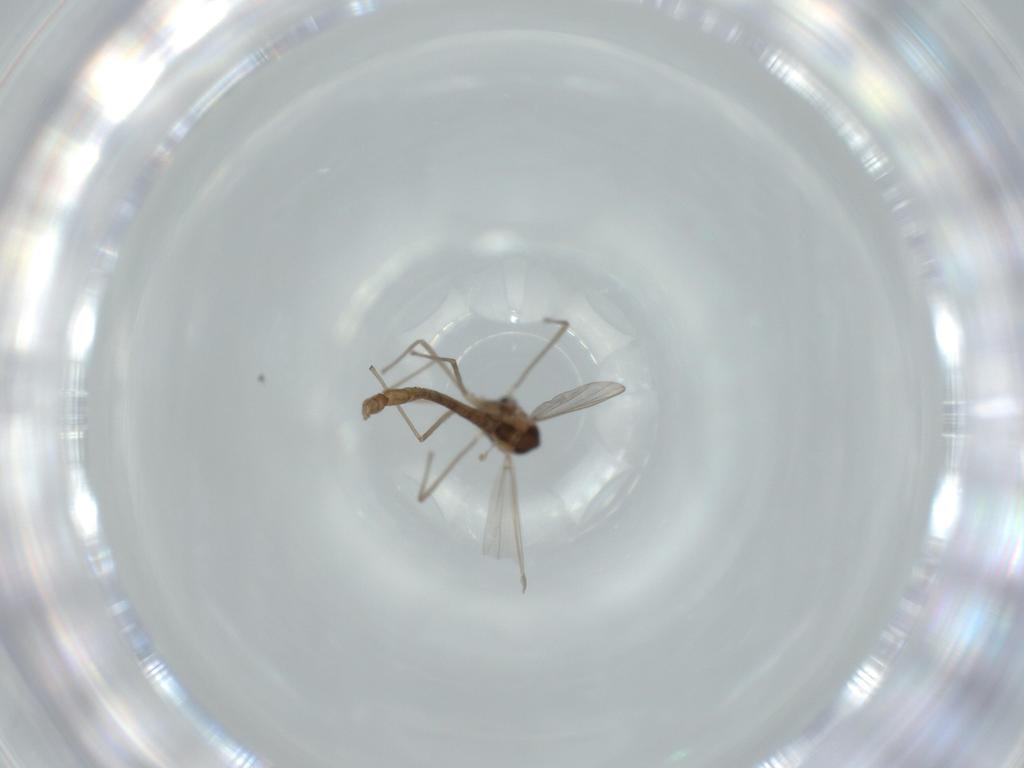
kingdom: Animalia
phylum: Arthropoda
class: Insecta
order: Diptera
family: Chironomidae
